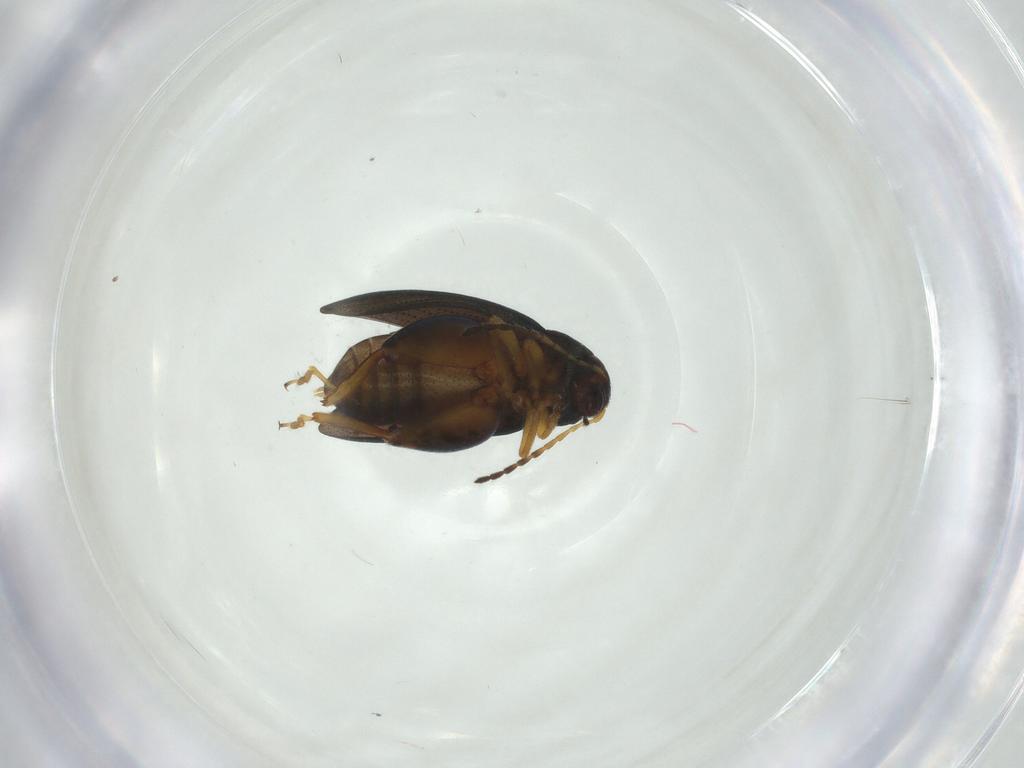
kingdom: Animalia
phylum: Arthropoda
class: Insecta
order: Coleoptera
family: Chrysomelidae
